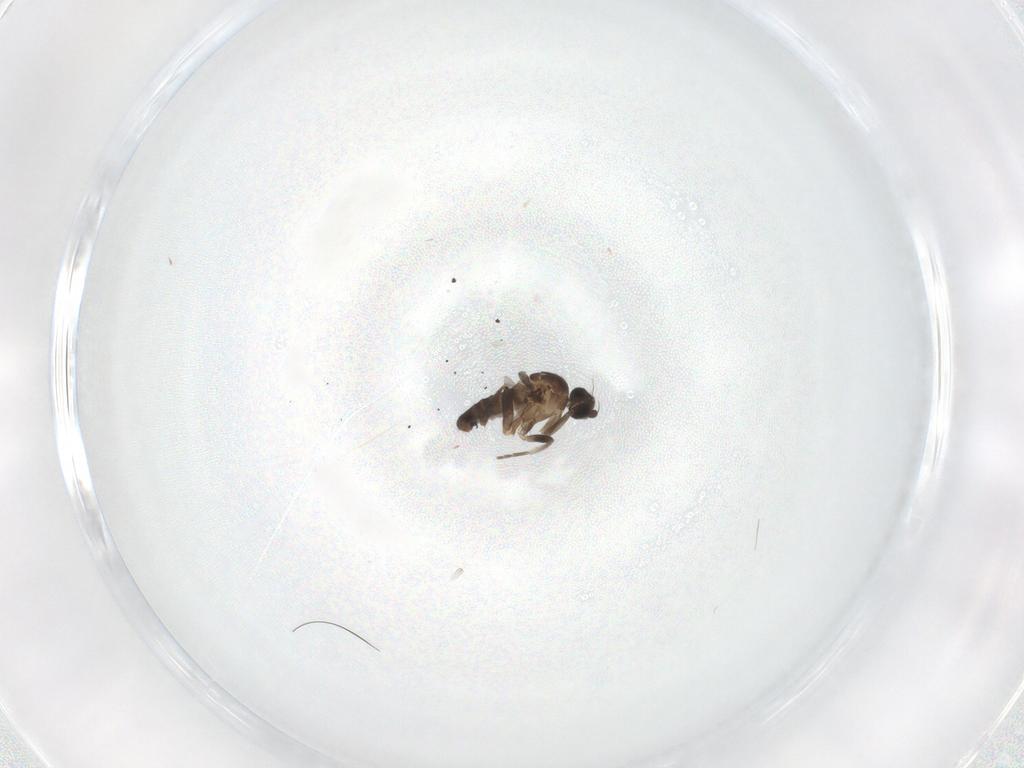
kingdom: Animalia
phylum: Arthropoda
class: Insecta
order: Diptera
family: Phoridae
